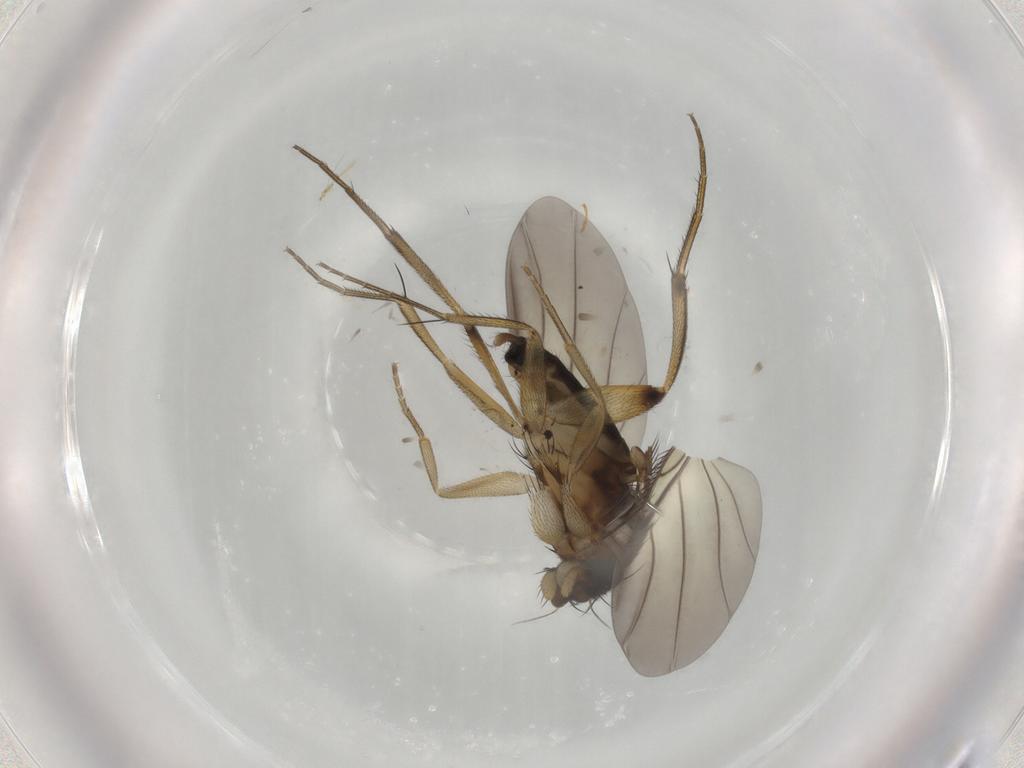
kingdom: Animalia
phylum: Arthropoda
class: Insecta
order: Diptera
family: Phoridae
